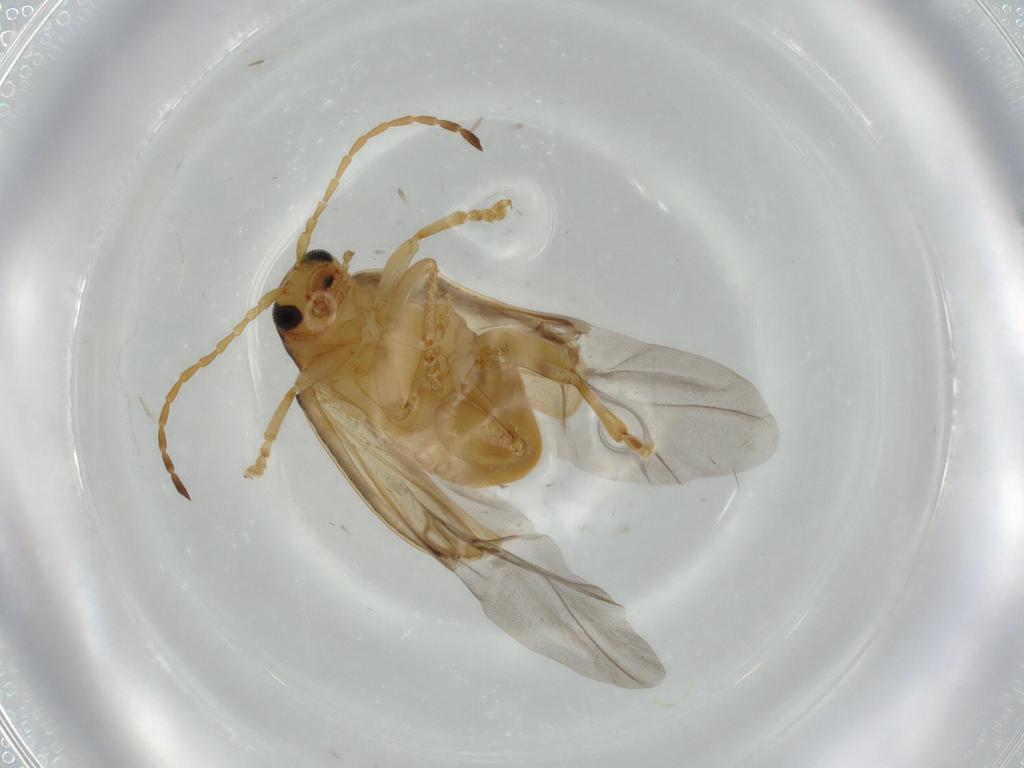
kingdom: Animalia
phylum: Arthropoda
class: Insecta
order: Coleoptera
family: Chrysomelidae
